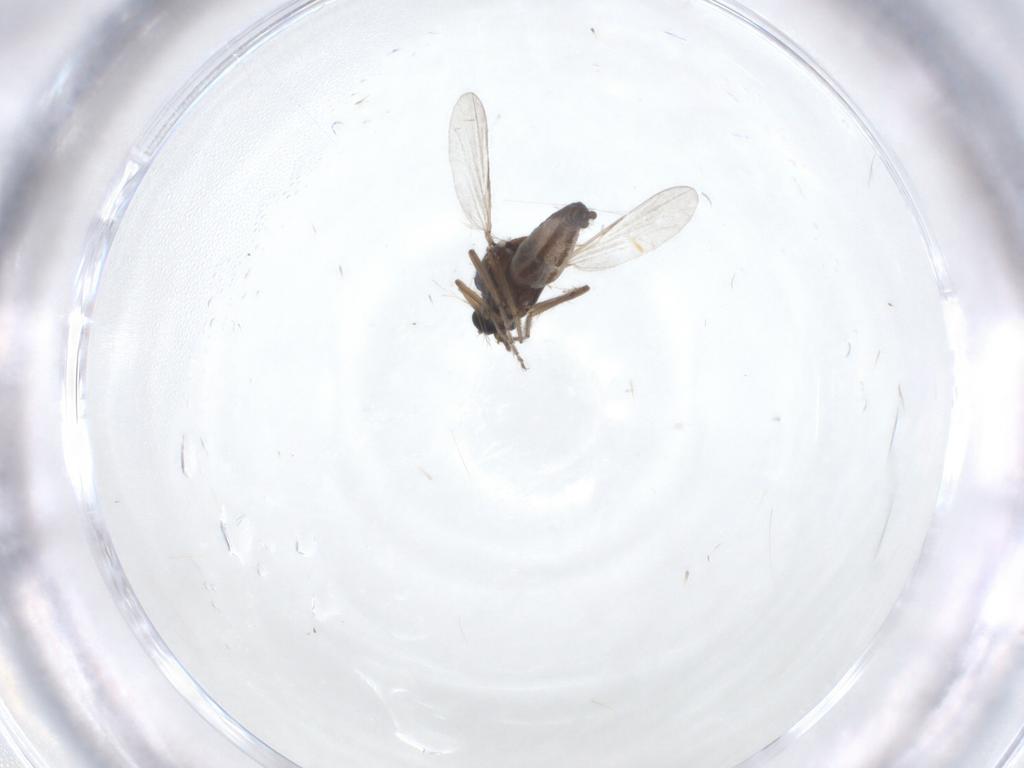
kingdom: Animalia
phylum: Arthropoda
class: Insecta
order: Diptera
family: Ceratopogonidae
